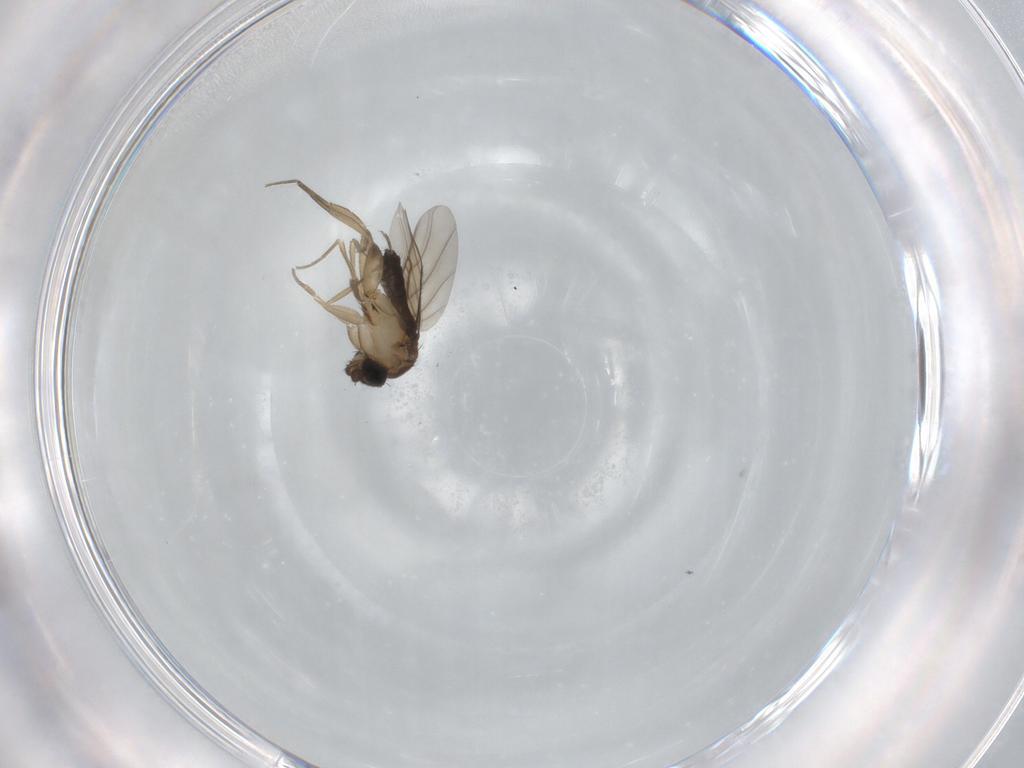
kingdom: Animalia
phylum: Arthropoda
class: Insecta
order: Diptera
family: Phoridae
